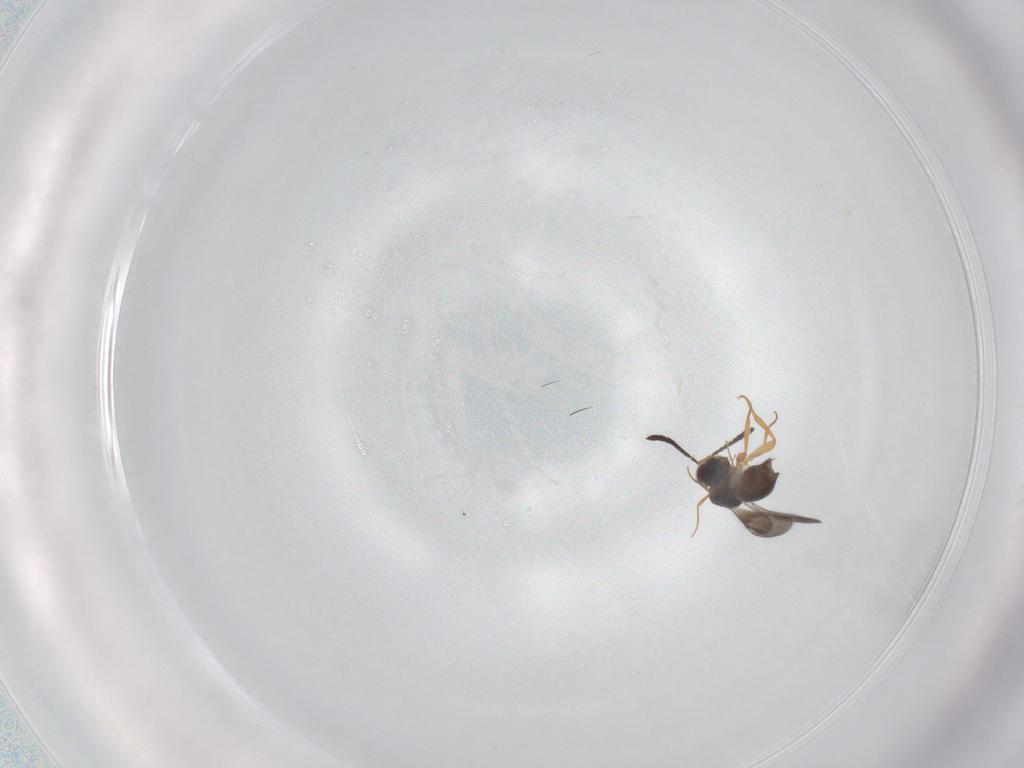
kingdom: Animalia
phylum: Arthropoda
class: Insecta
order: Hymenoptera
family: Ceraphronidae
